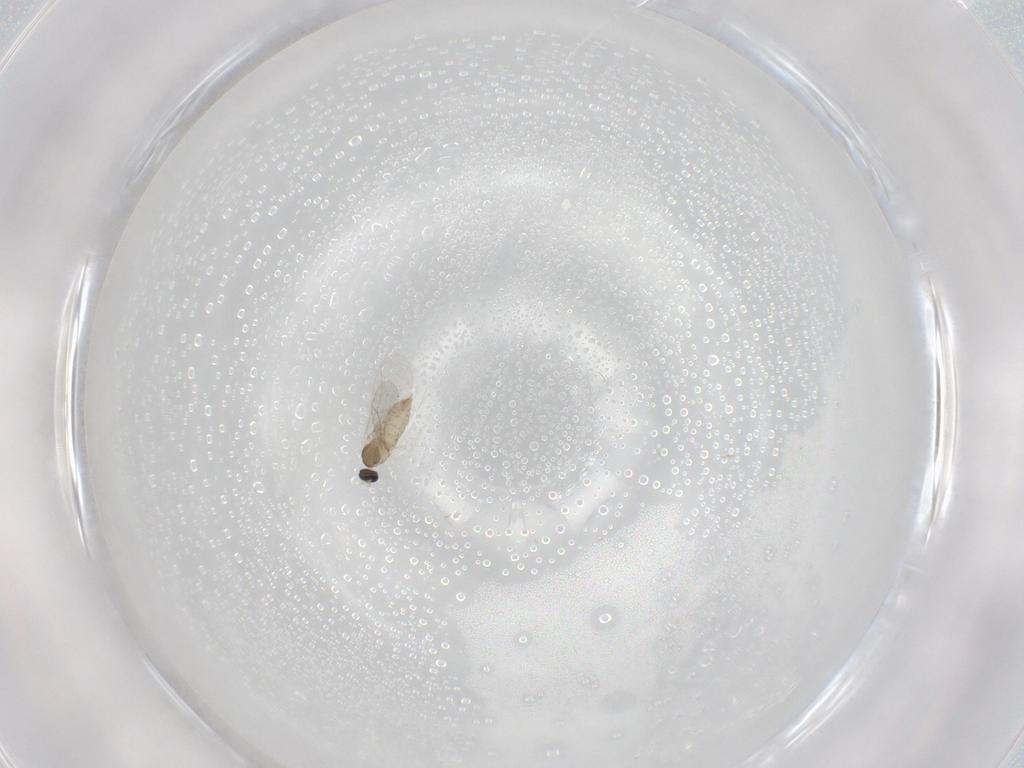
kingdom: Animalia
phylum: Arthropoda
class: Insecta
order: Diptera
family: Cecidomyiidae
